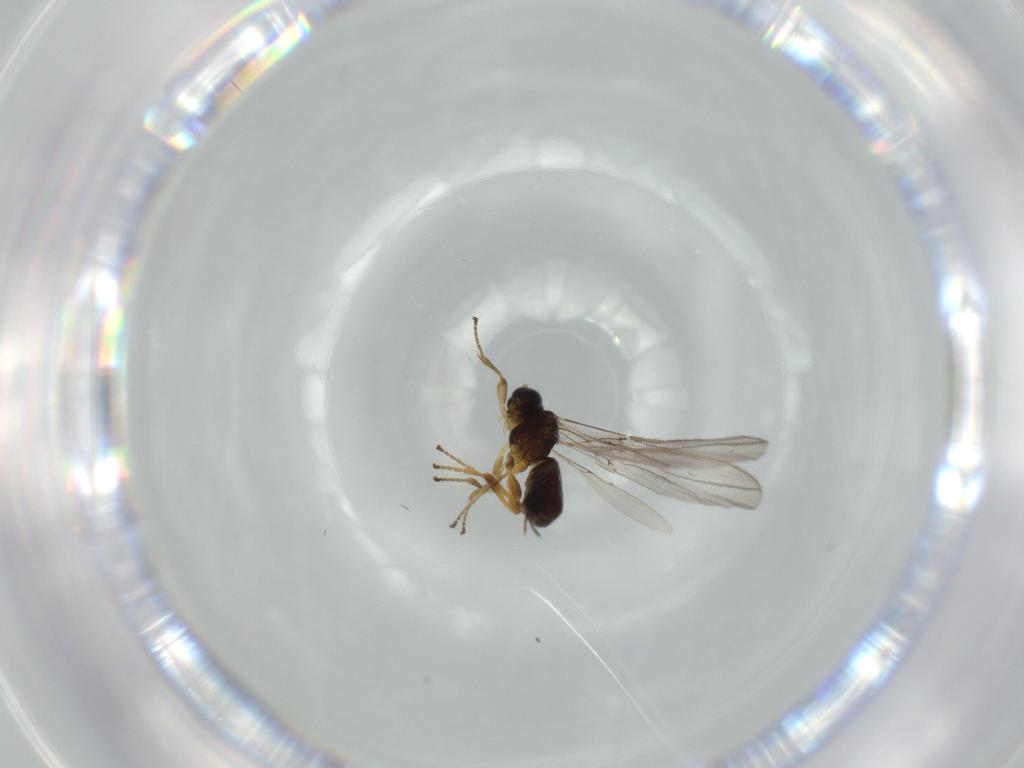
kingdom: Animalia
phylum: Arthropoda
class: Insecta
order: Hymenoptera
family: Braconidae
